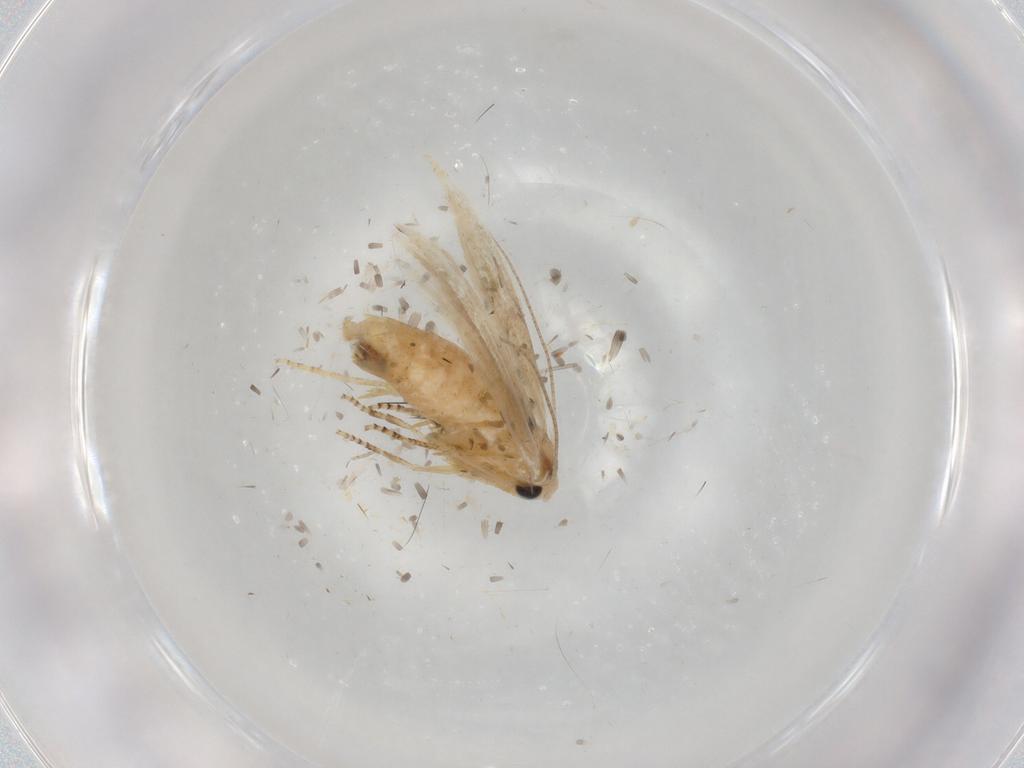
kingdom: Animalia
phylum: Arthropoda
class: Insecta
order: Lepidoptera
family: Bucculatricidae
